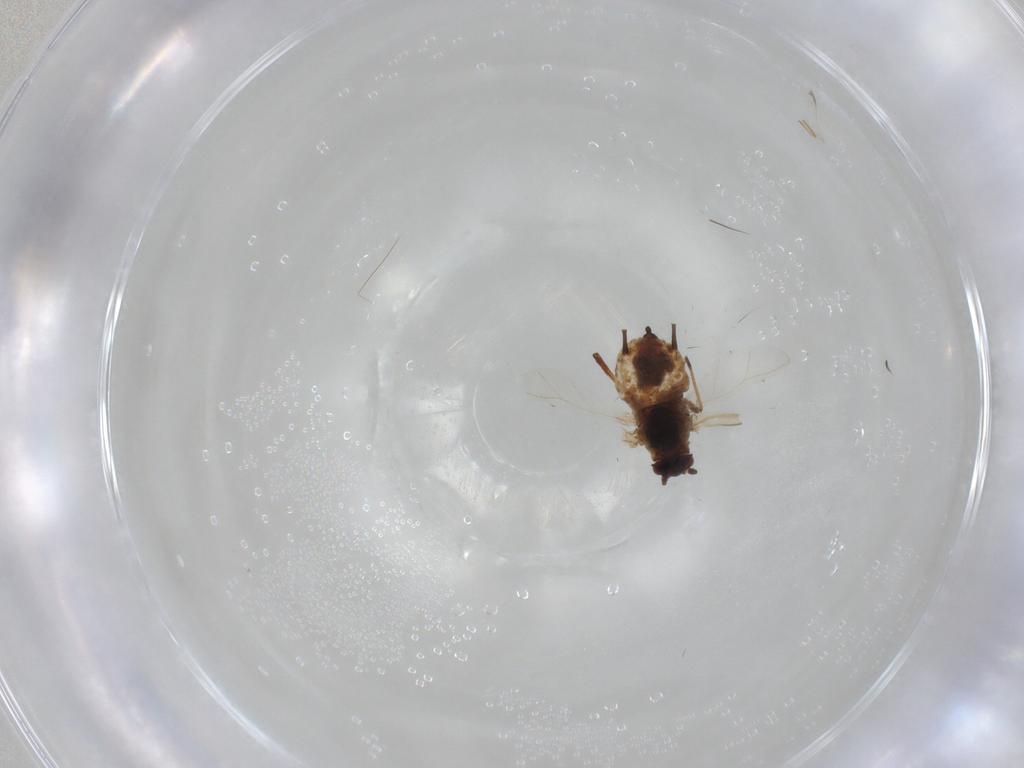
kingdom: Animalia
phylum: Arthropoda
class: Insecta
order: Hemiptera
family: Aphididae
